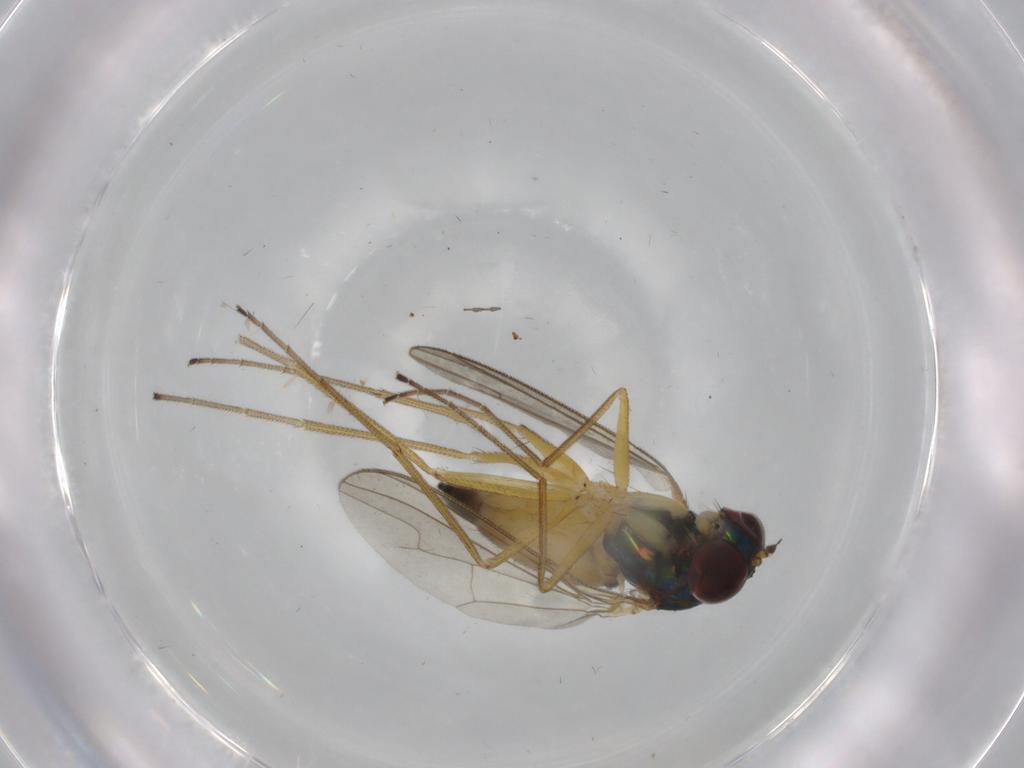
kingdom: Animalia
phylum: Arthropoda
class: Insecta
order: Diptera
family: Dolichopodidae
